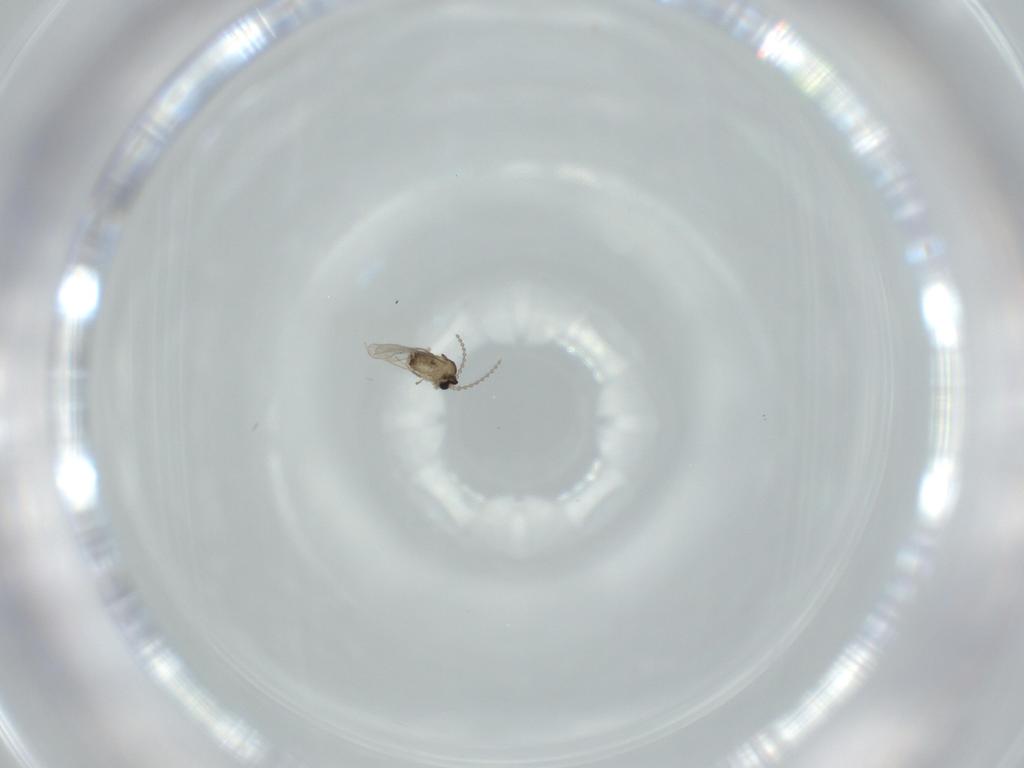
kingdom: Animalia
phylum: Arthropoda
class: Insecta
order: Diptera
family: Cecidomyiidae
